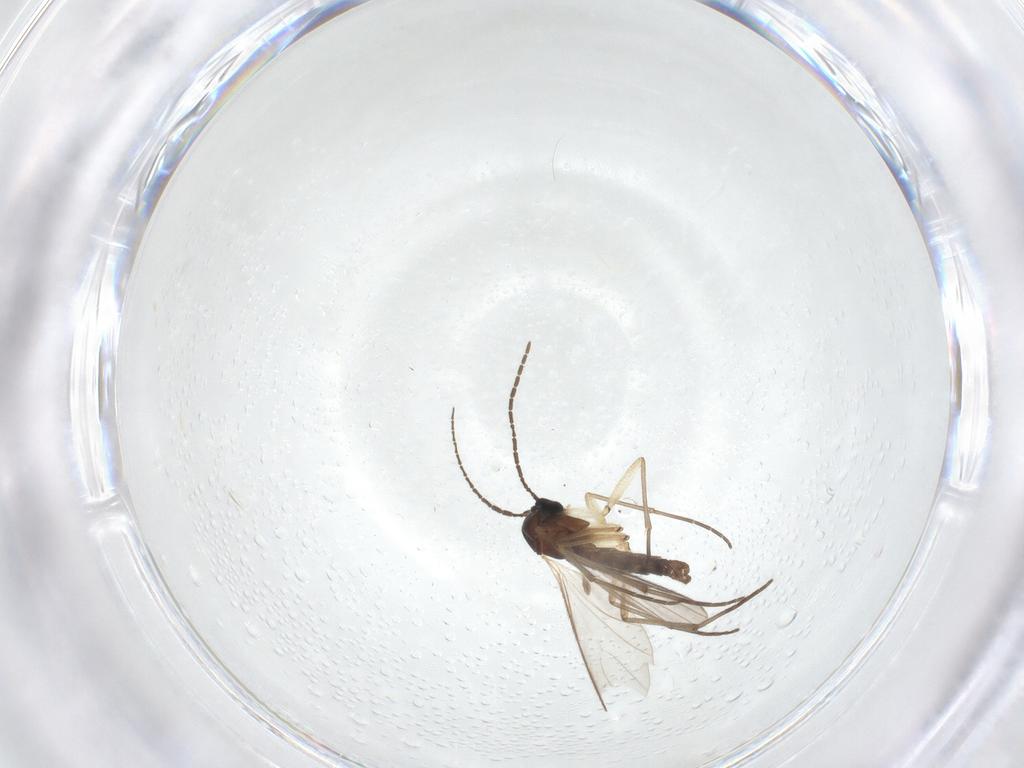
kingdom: Animalia
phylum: Arthropoda
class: Insecta
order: Diptera
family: Sciaridae
